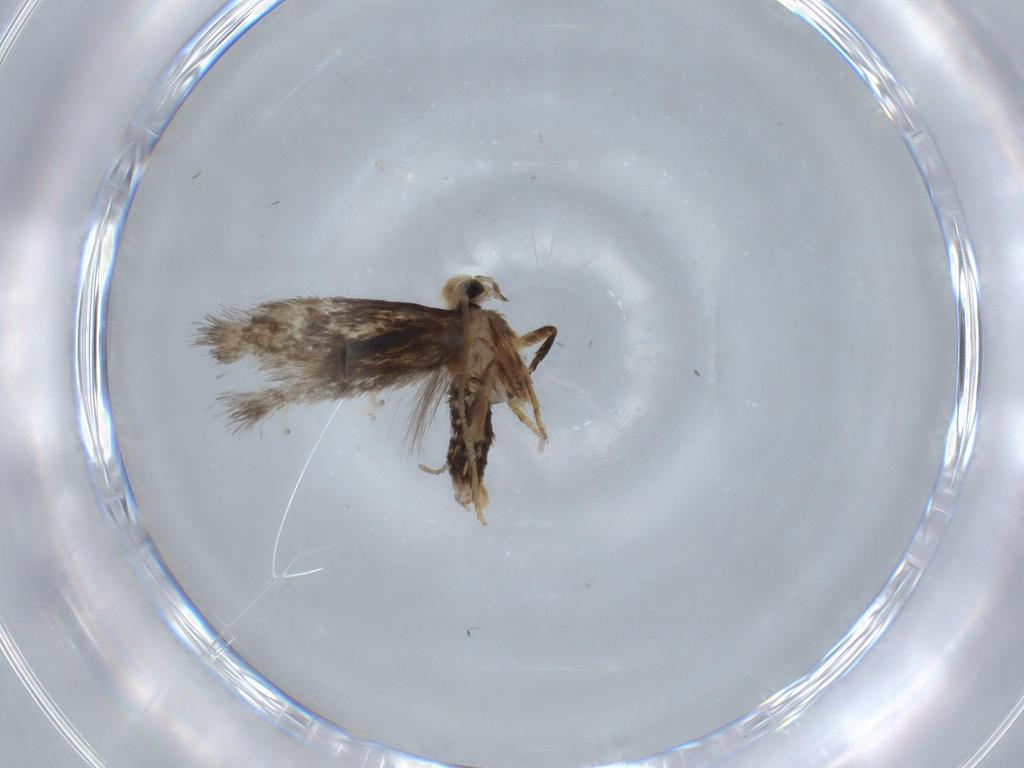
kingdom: Animalia
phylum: Arthropoda
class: Insecta
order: Lepidoptera
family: Nepticulidae
